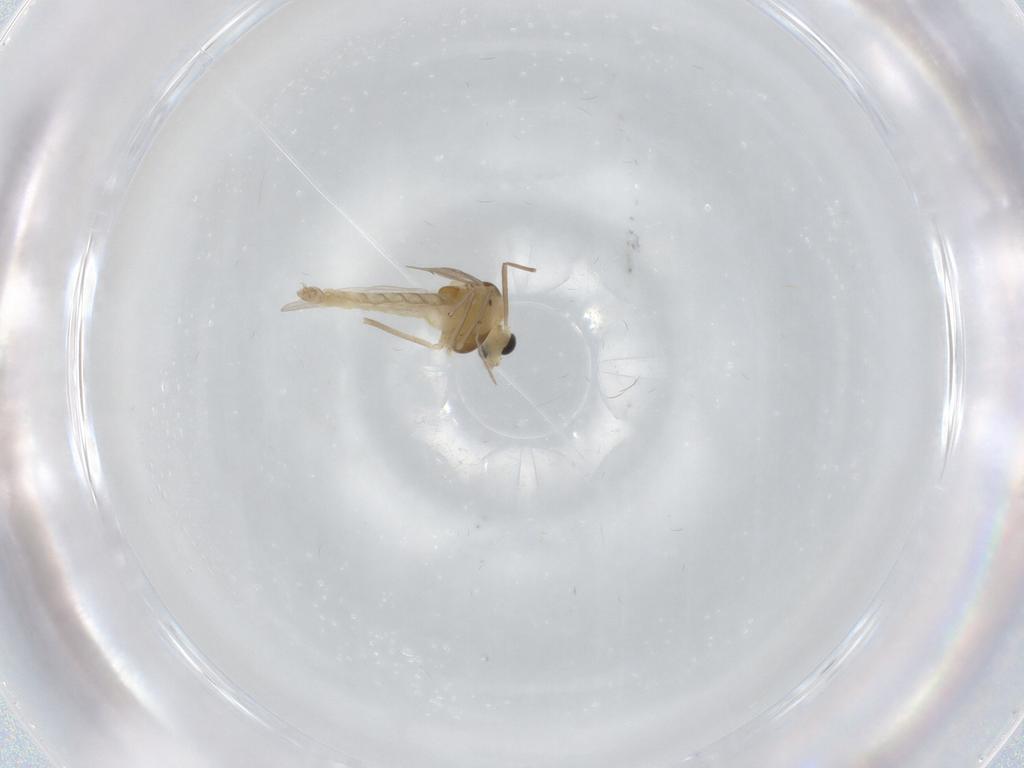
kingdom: Animalia
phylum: Arthropoda
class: Insecta
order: Diptera
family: Chironomidae
